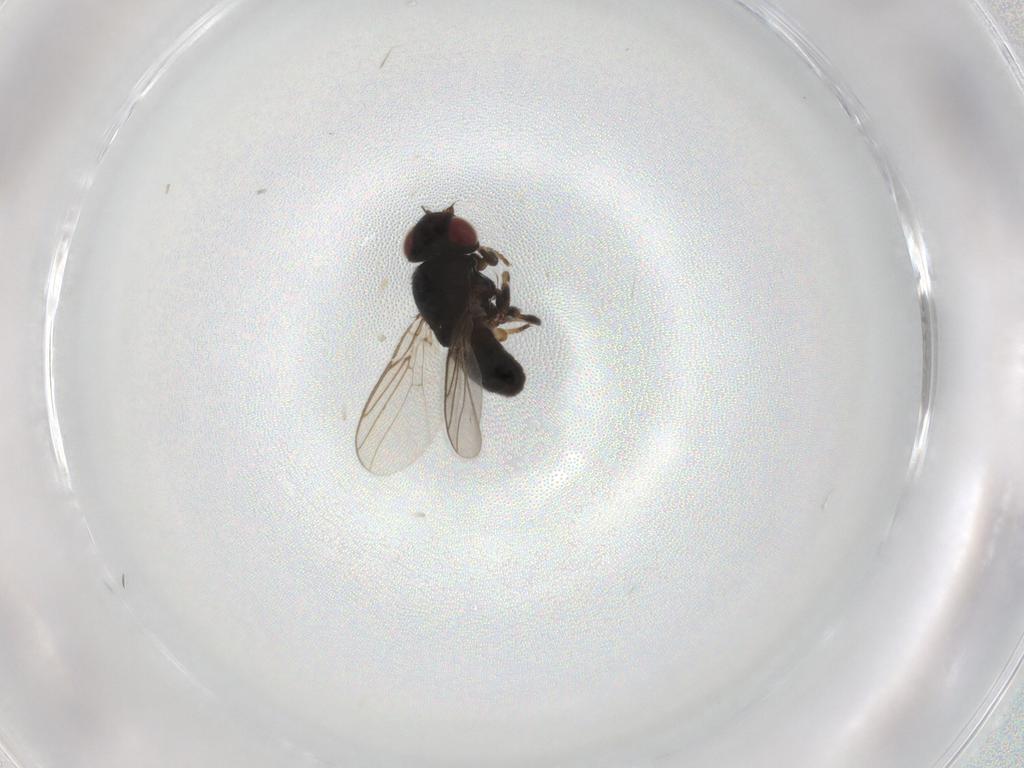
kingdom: Animalia
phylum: Arthropoda
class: Insecta
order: Diptera
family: Chloropidae
